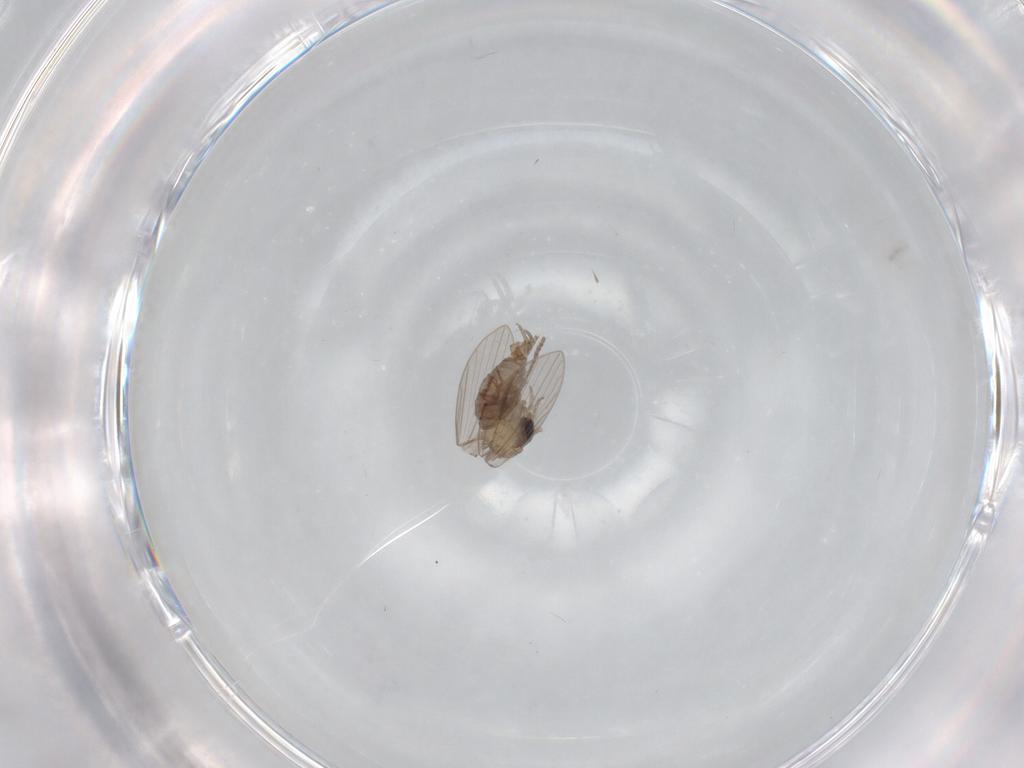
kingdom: Animalia
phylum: Arthropoda
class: Insecta
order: Diptera
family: Psychodidae
